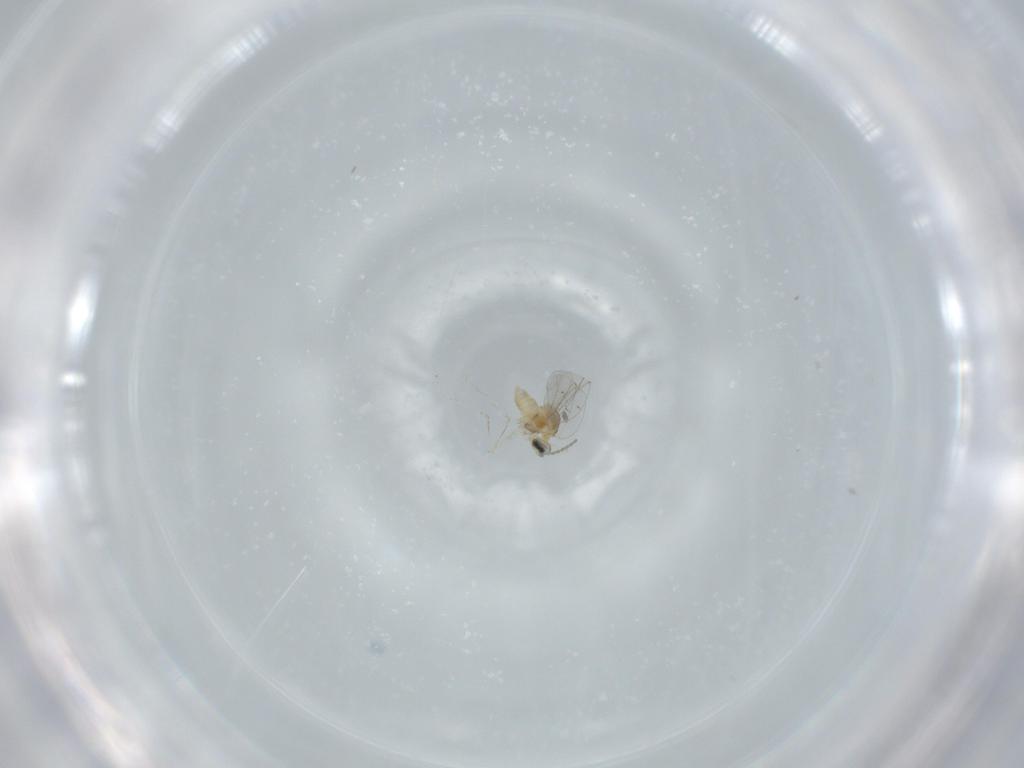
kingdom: Animalia
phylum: Arthropoda
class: Insecta
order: Diptera
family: Cecidomyiidae
